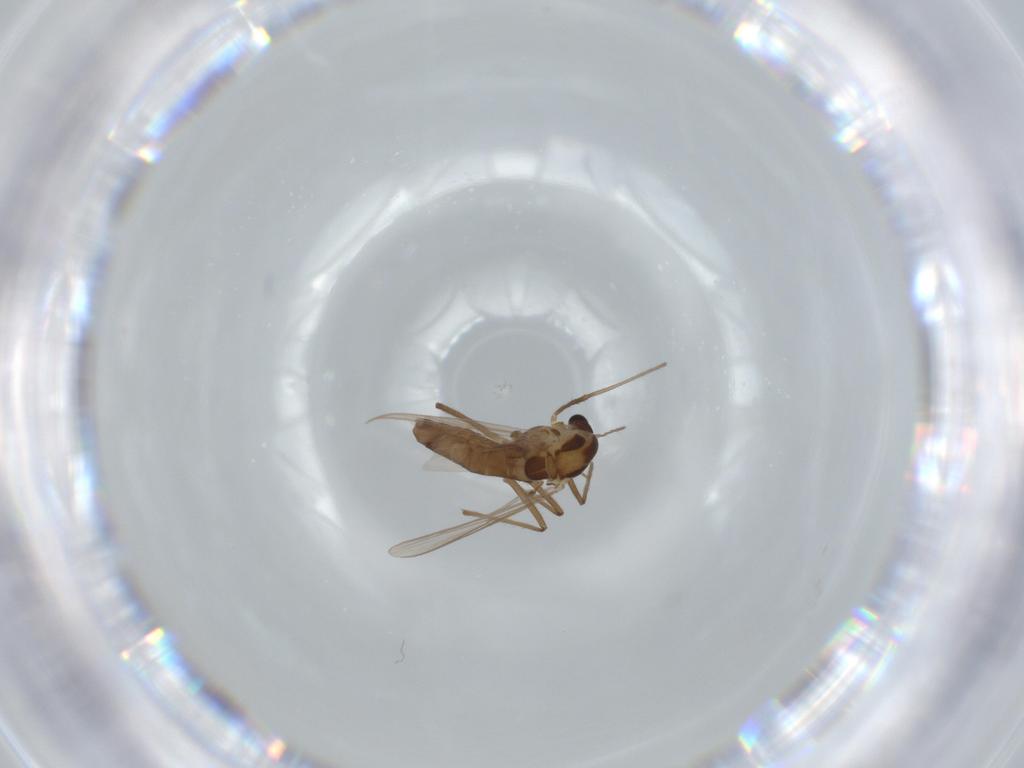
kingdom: Animalia
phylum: Arthropoda
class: Insecta
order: Diptera
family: Chironomidae
